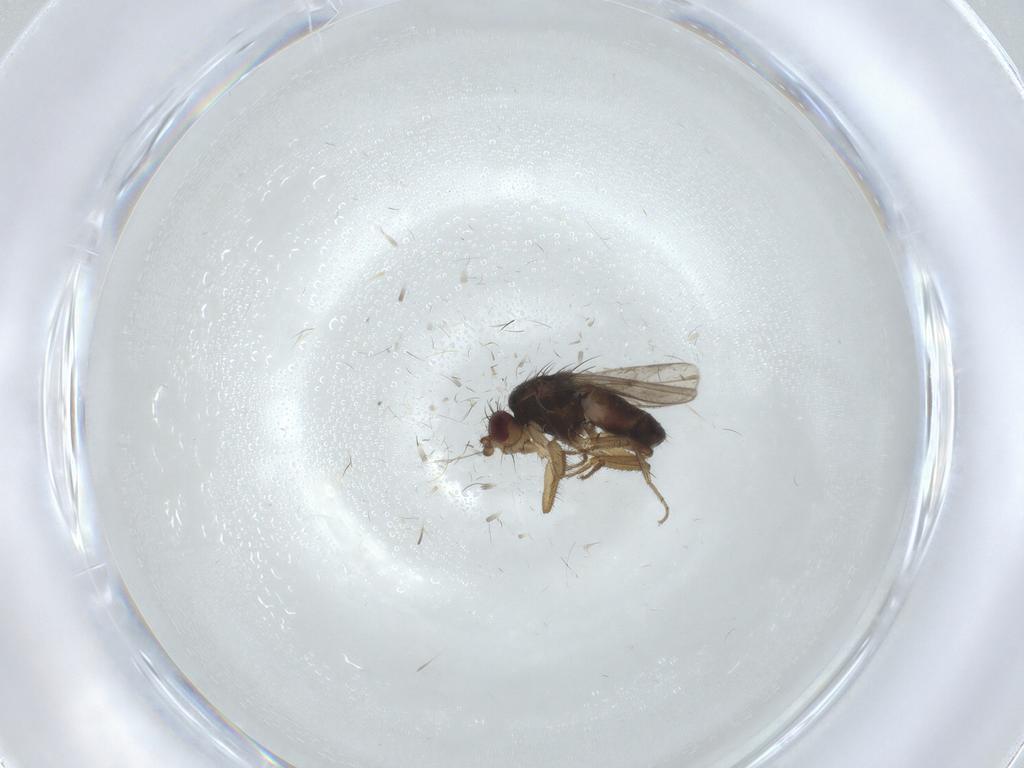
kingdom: Animalia
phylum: Arthropoda
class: Insecta
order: Diptera
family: Sphaeroceridae
